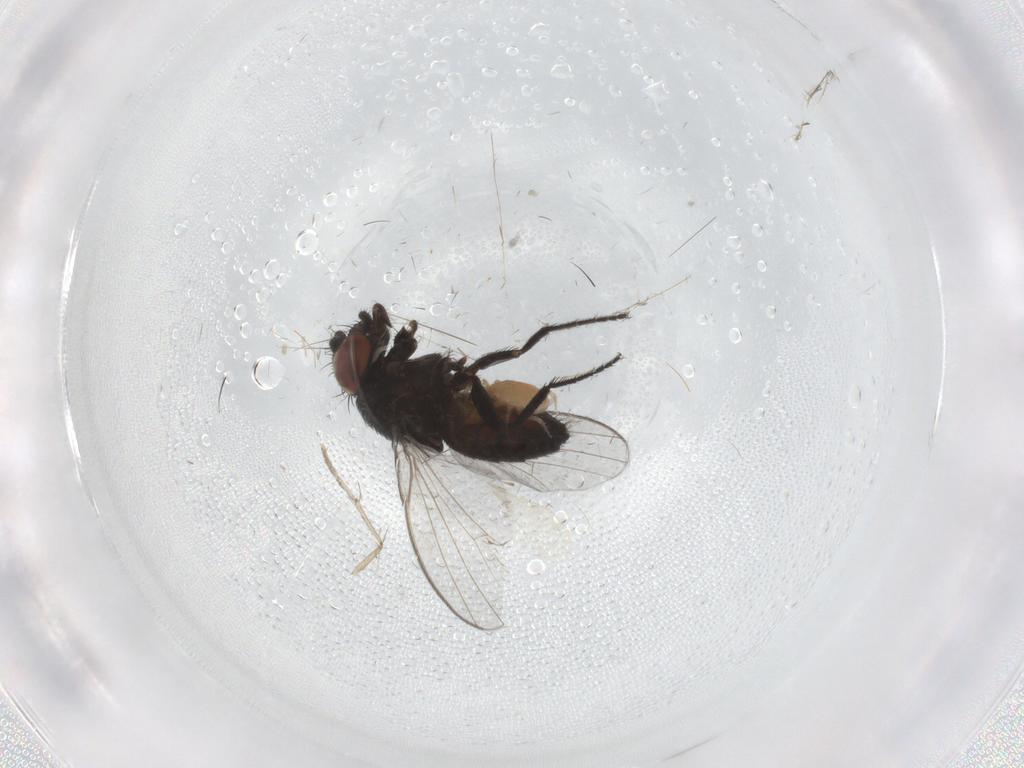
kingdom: Animalia
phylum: Arthropoda
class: Insecta
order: Diptera
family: Milichiidae
